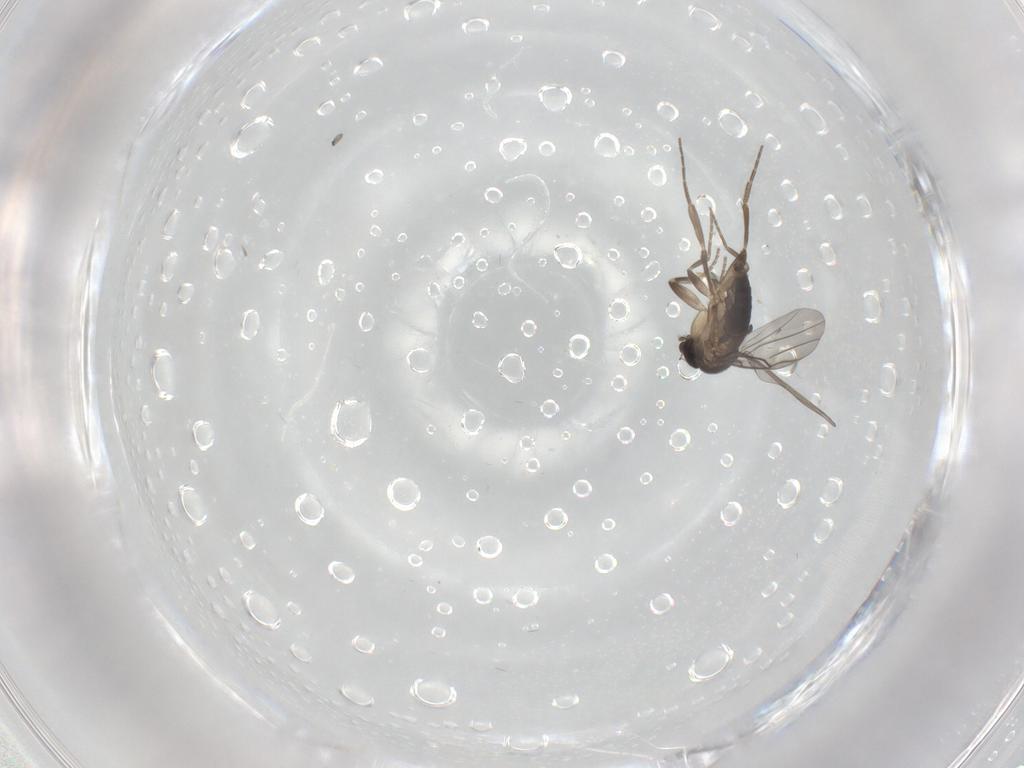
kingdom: Animalia
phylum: Arthropoda
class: Insecta
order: Diptera
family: Phoridae
